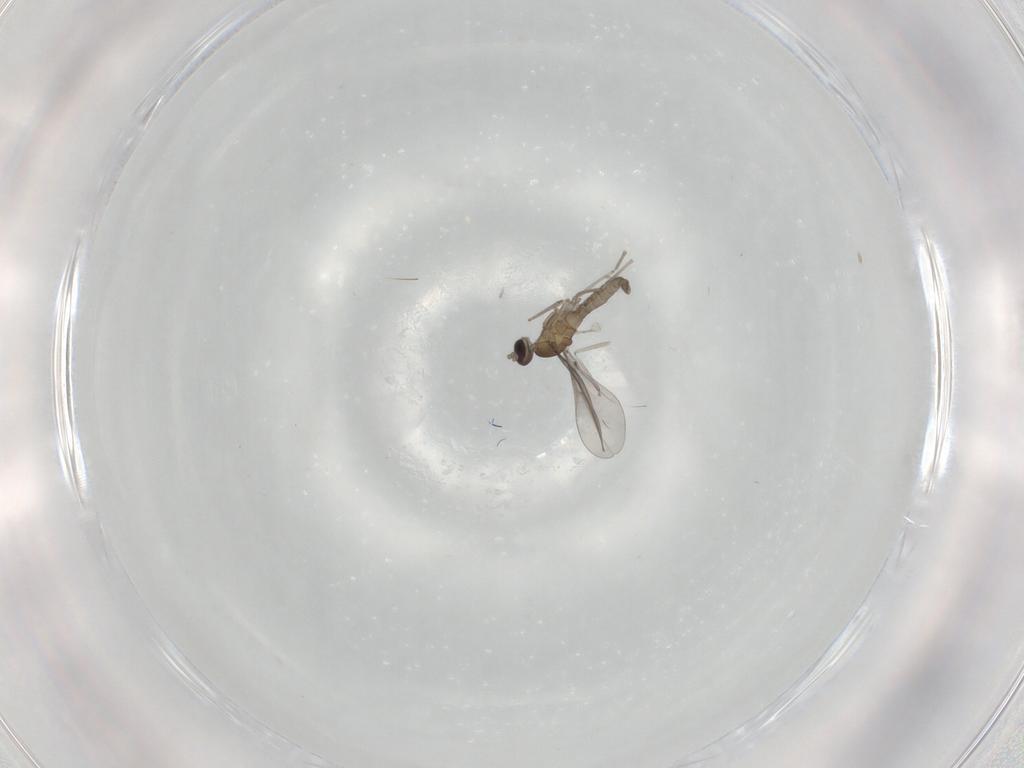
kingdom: Animalia
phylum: Arthropoda
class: Insecta
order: Diptera
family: Cecidomyiidae
